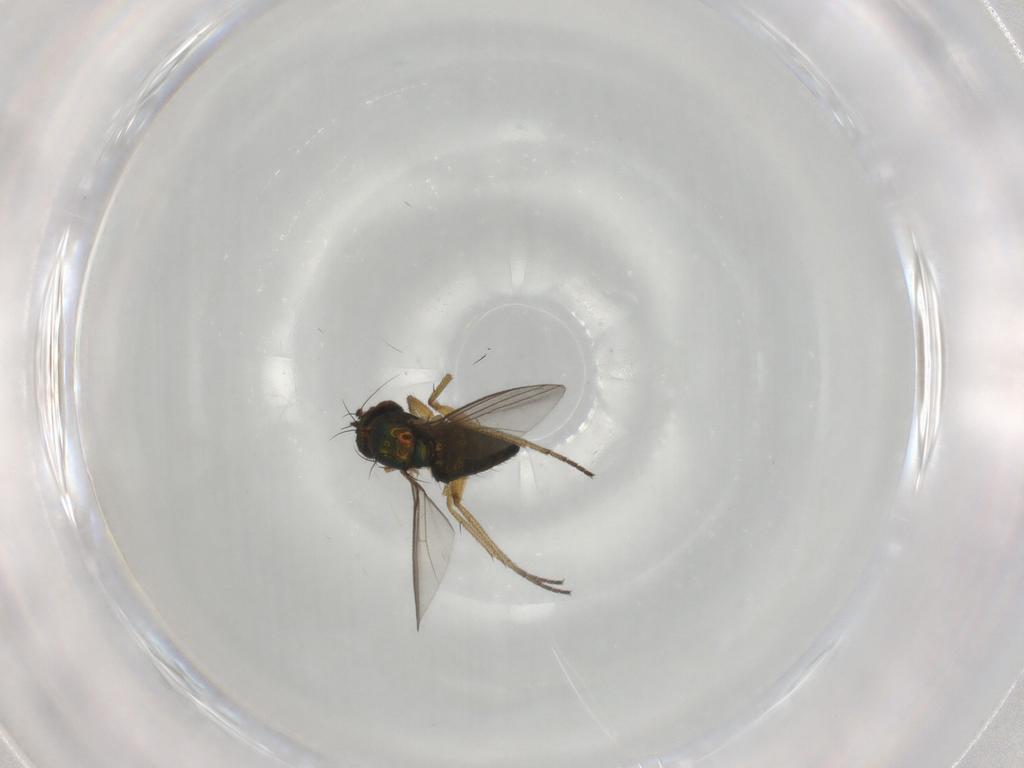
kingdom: Animalia
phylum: Arthropoda
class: Insecta
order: Diptera
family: Dolichopodidae
